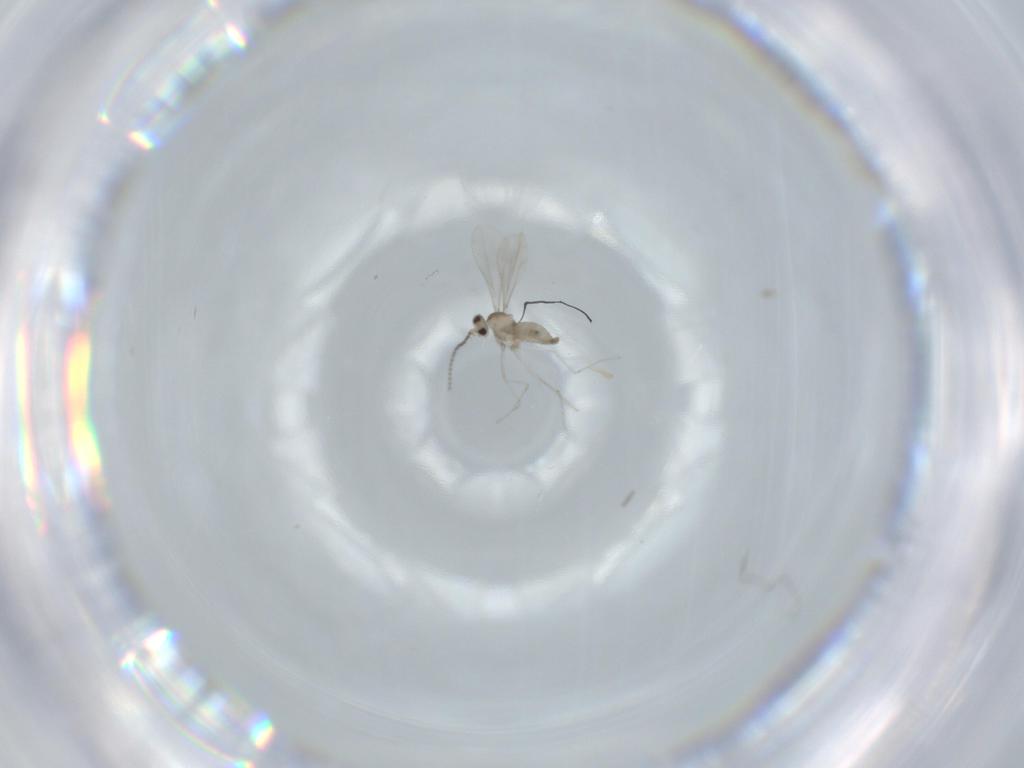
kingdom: Animalia
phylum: Arthropoda
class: Insecta
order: Diptera
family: Cecidomyiidae
